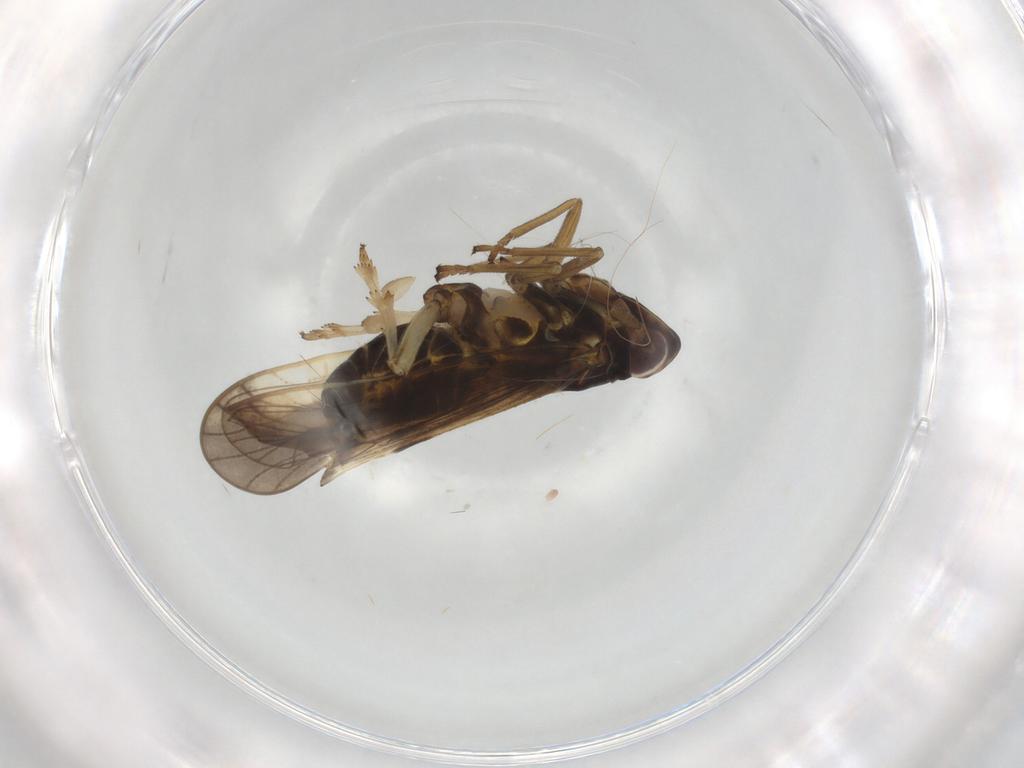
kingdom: Animalia
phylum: Arthropoda
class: Insecta
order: Hemiptera
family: Delphacidae
